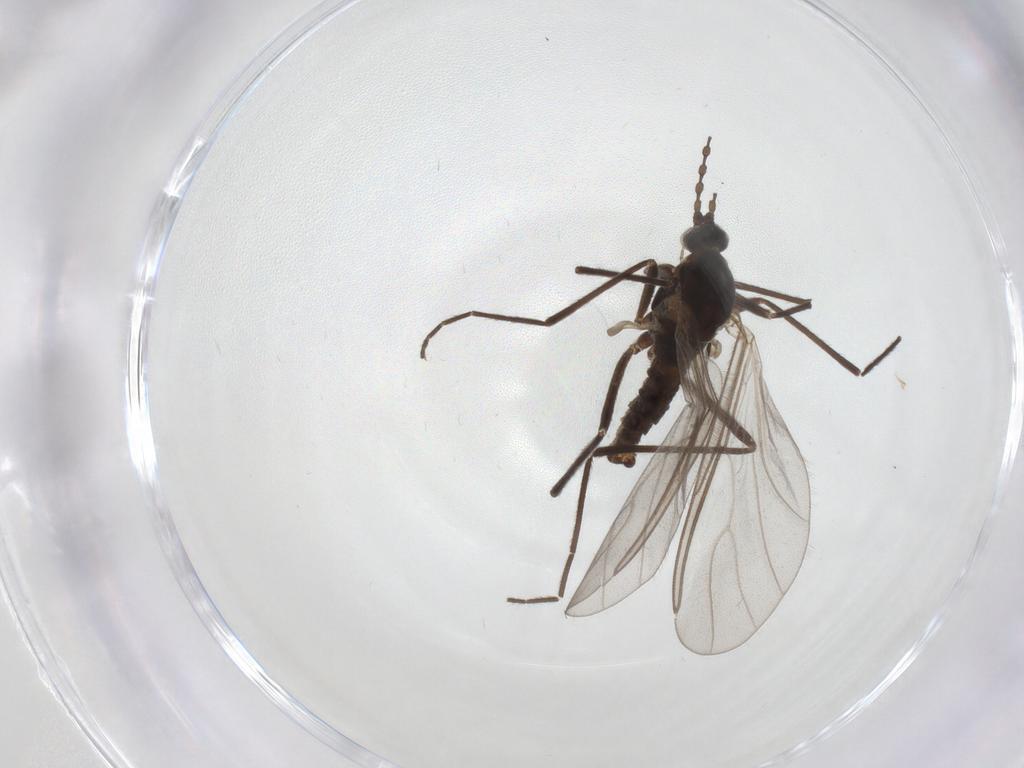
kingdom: Animalia
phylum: Arthropoda
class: Insecta
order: Diptera
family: Cecidomyiidae
